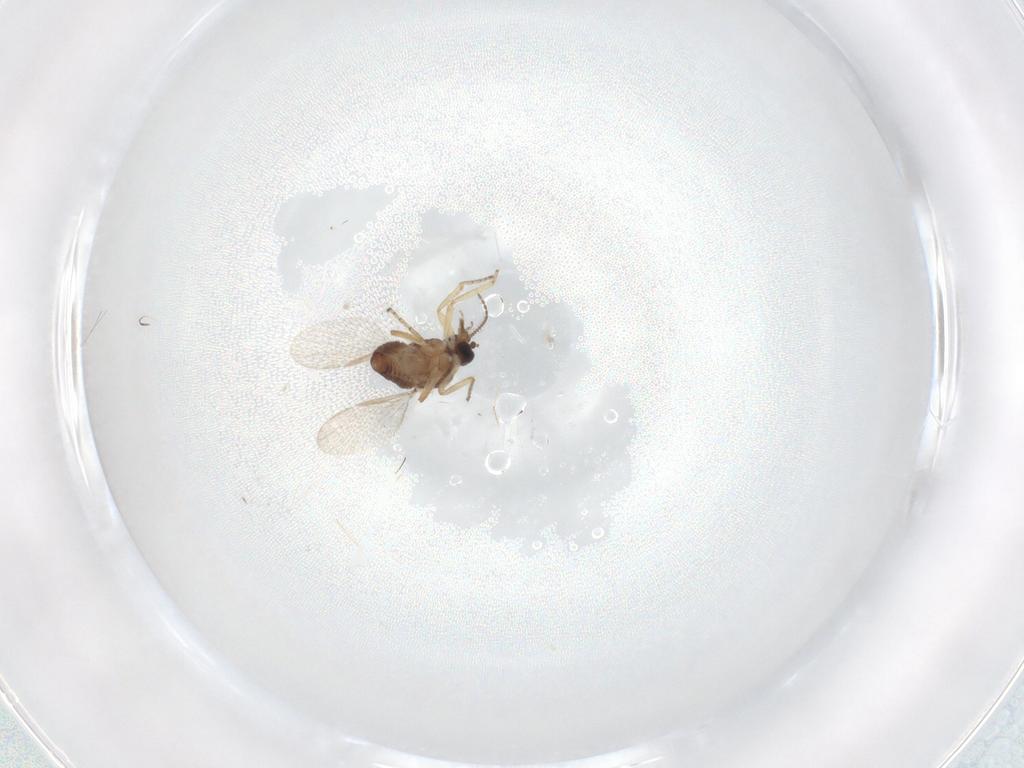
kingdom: Animalia
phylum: Arthropoda
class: Insecta
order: Diptera
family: Ceratopogonidae
